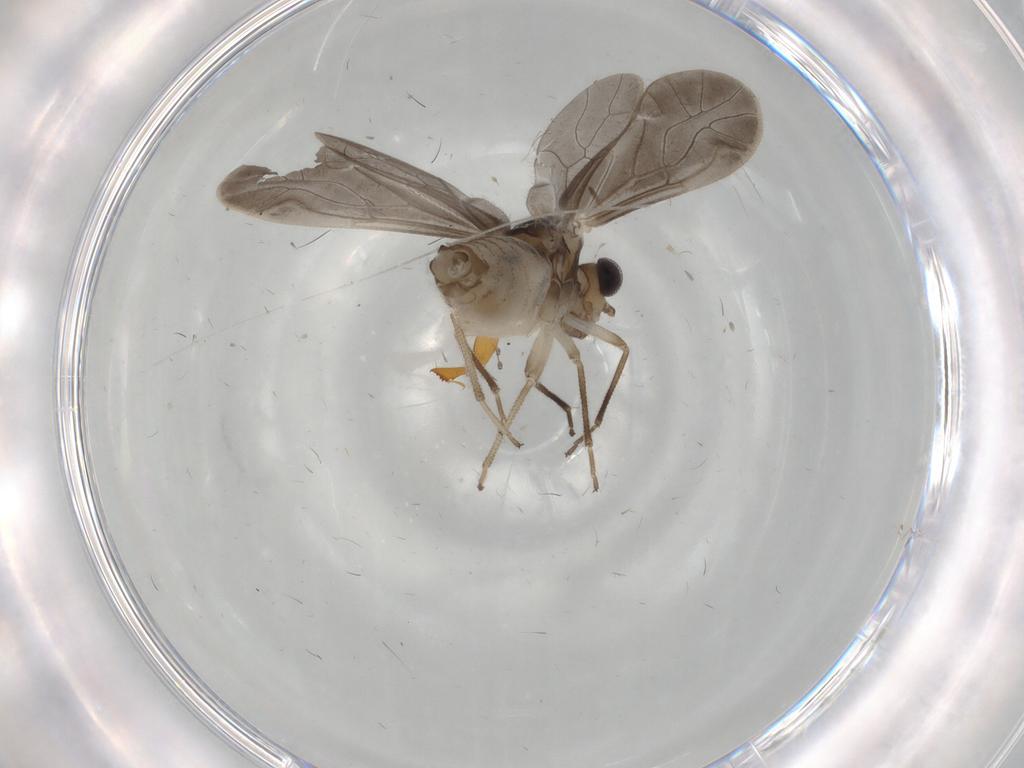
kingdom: Animalia
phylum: Arthropoda
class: Insecta
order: Psocodea
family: Caeciliusidae
